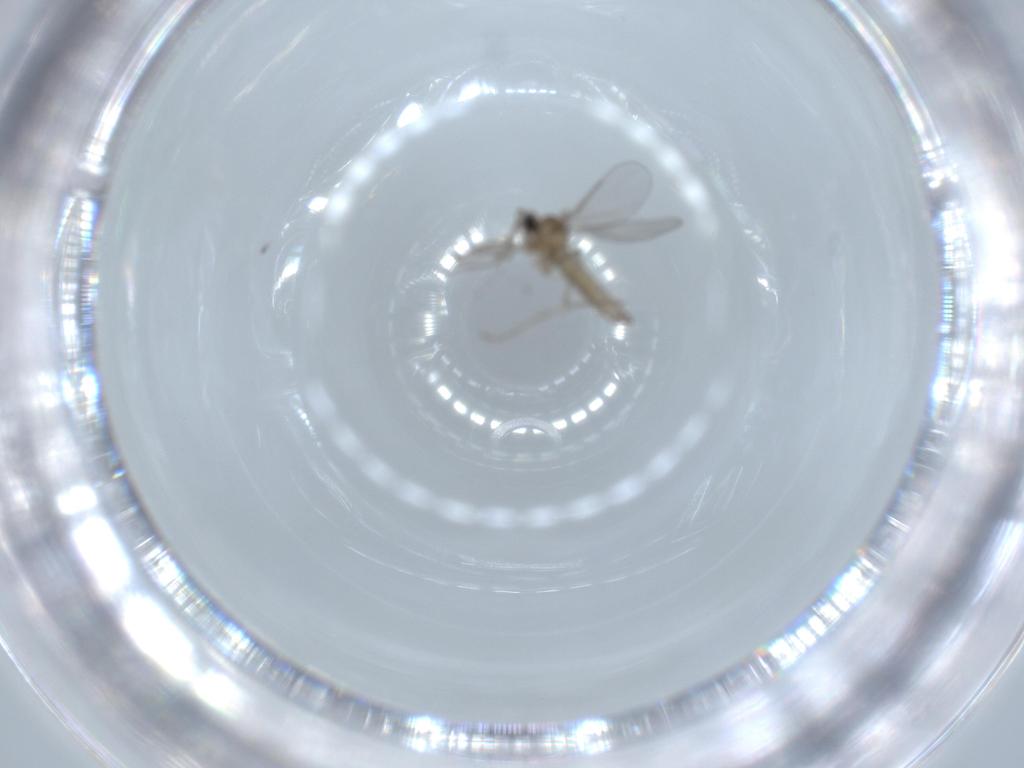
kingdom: Animalia
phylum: Arthropoda
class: Insecta
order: Diptera
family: Cecidomyiidae
